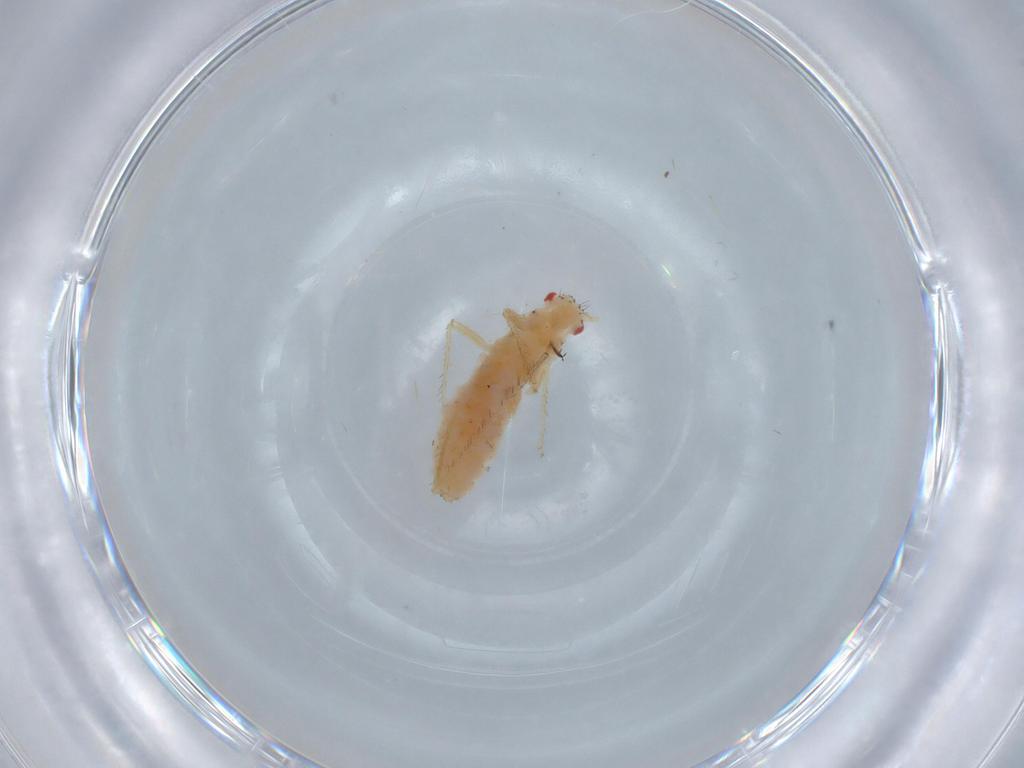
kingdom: Animalia
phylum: Arthropoda
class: Insecta
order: Hemiptera
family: Aphididae
